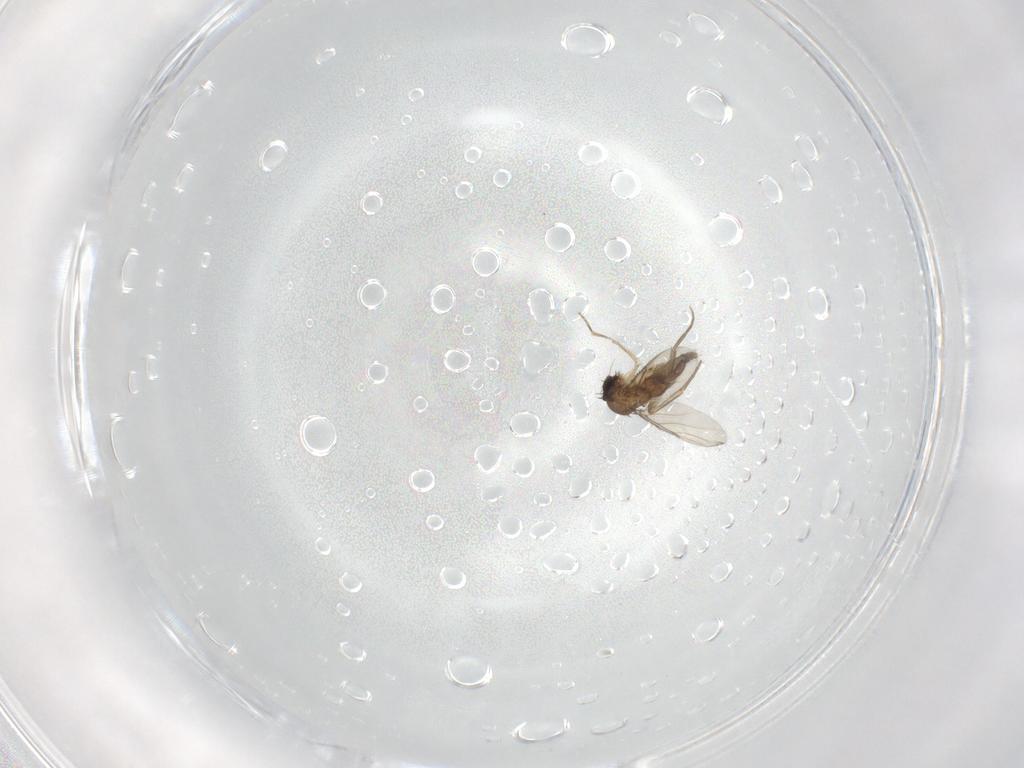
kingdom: Animalia
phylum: Arthropoda
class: Insecta
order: Diptera
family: Phoridae
